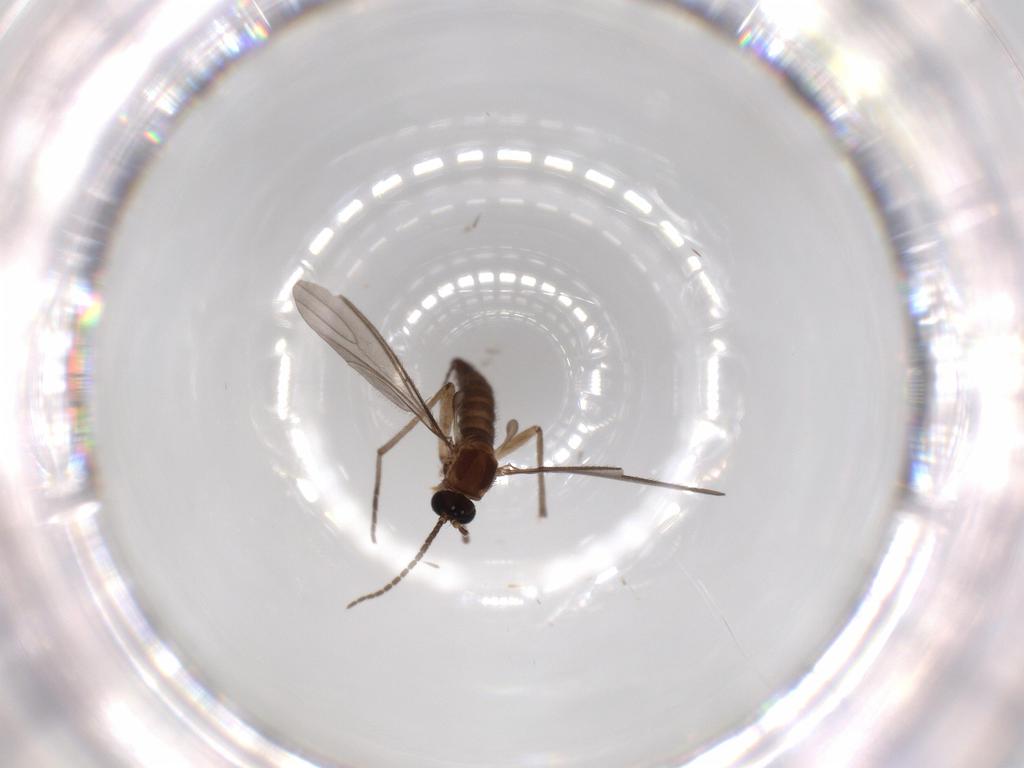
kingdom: Animalia
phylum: Arthropoda
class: Insecta
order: Diptera
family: Sciaridae
